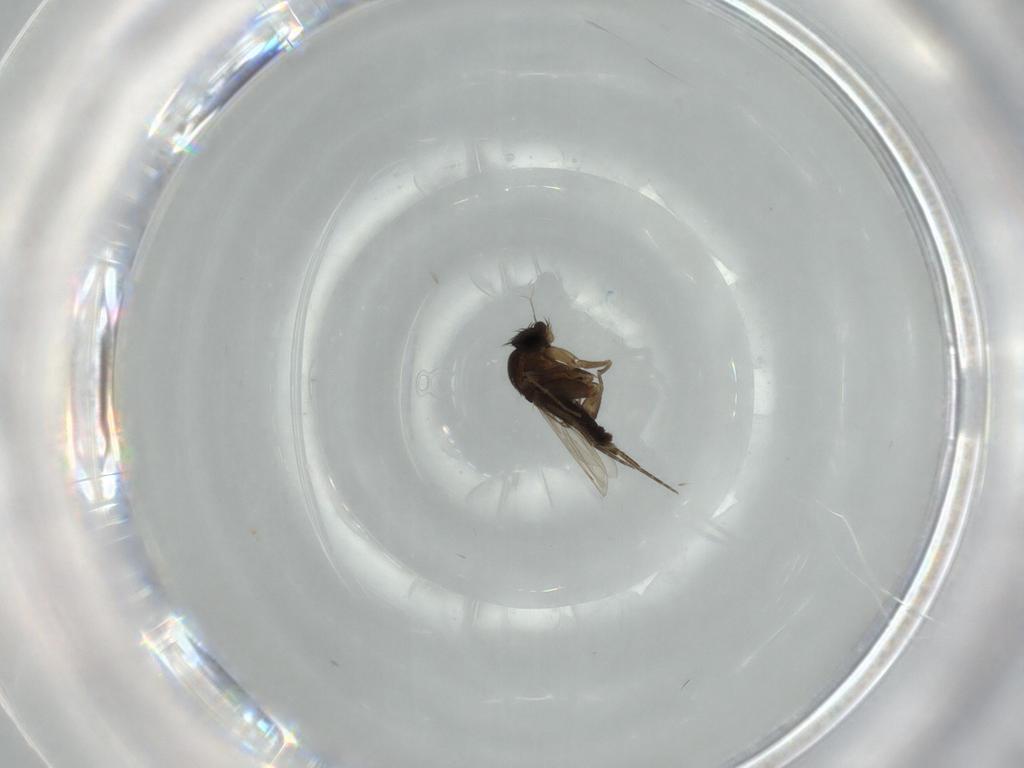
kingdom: Animalia
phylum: Arthropoda
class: Insecta
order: Diptera
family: Phoridae
